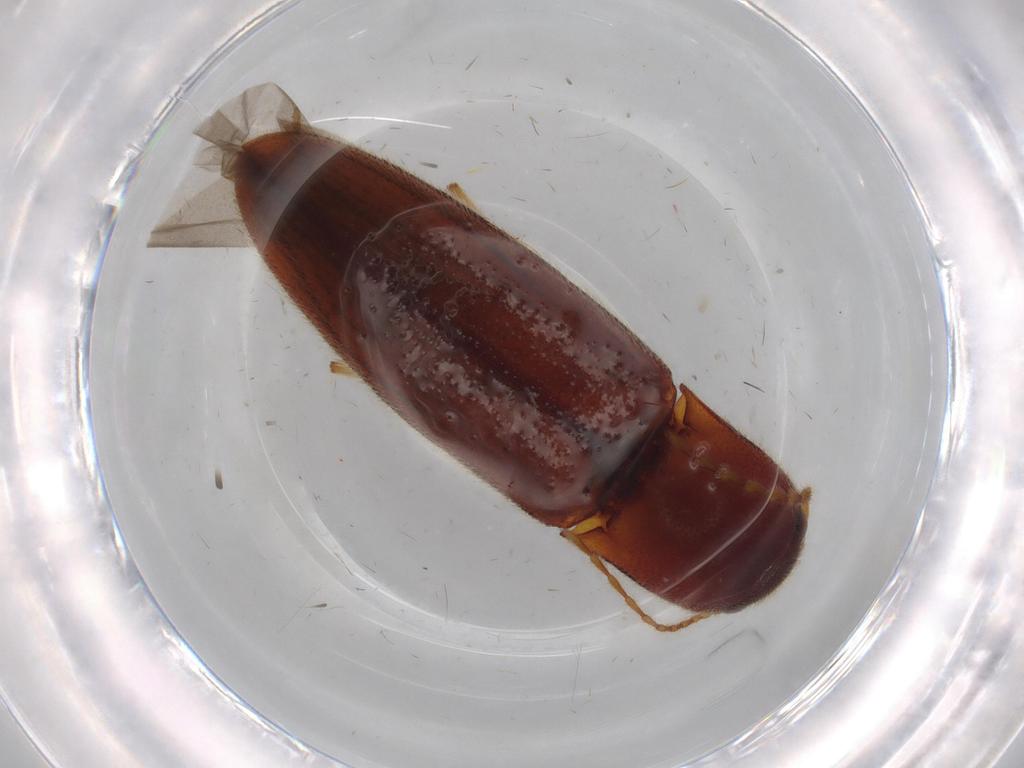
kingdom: Animalia
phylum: Arthropoda
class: Insecta
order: Coleoptera
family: Elateridae
